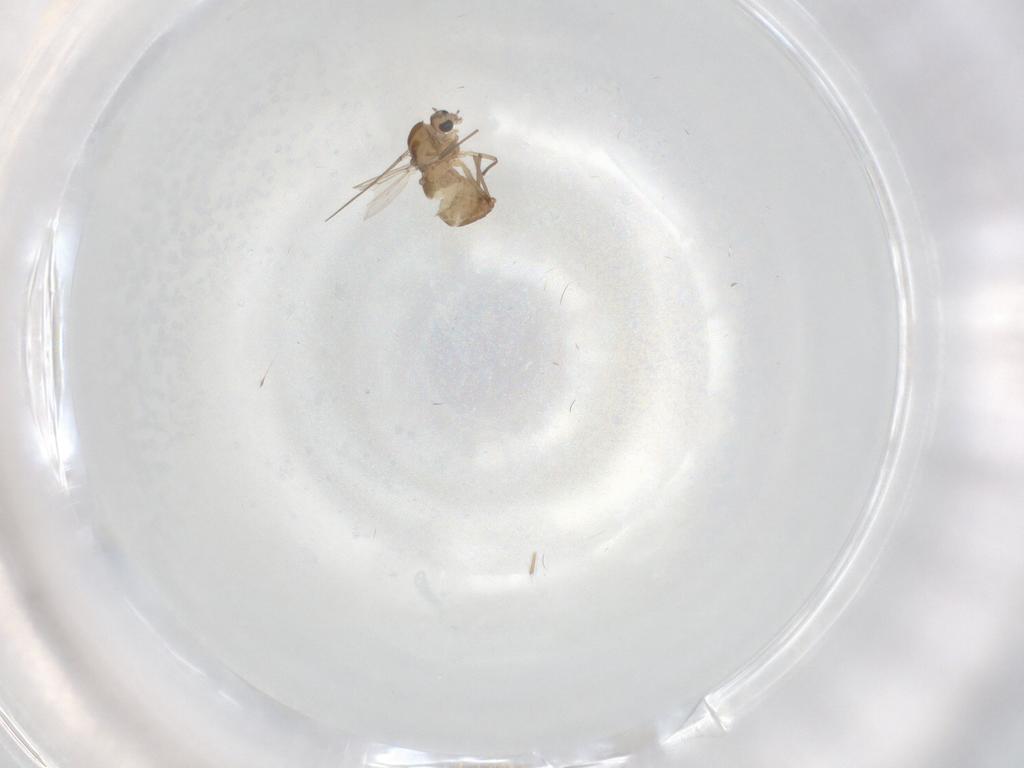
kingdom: Animalia
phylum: Arthropoda
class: Insecta
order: Diptera
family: Chironomidae
